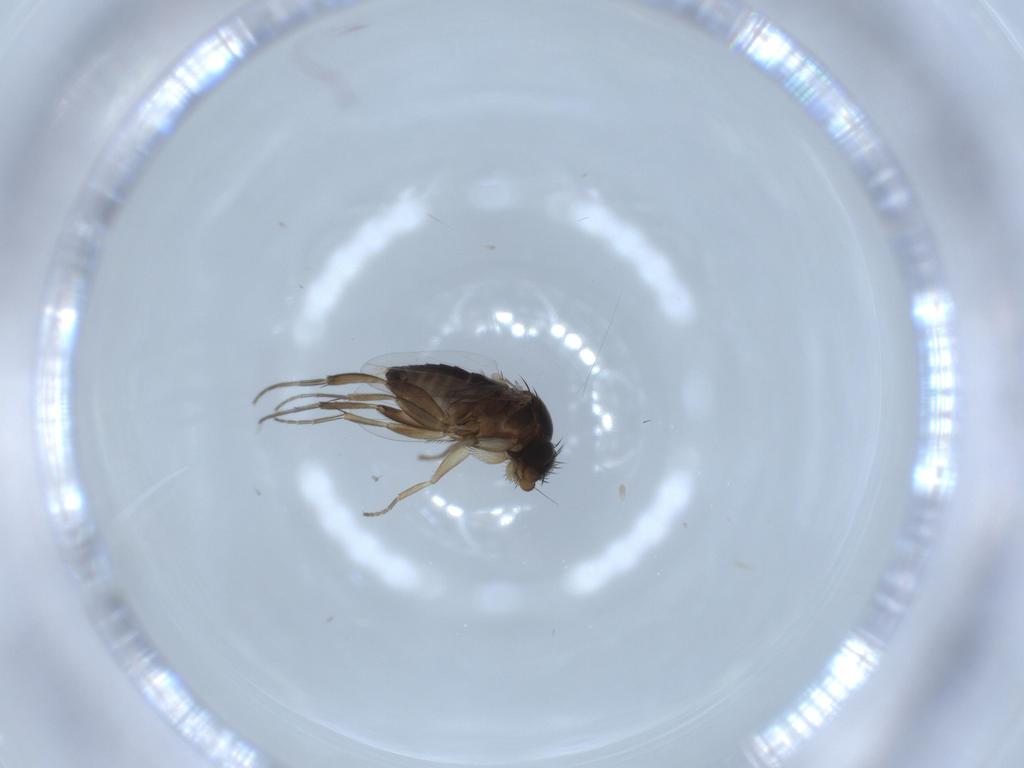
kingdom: Animalia
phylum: Arthropoda
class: Insecta
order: Diptera
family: Phoridae
